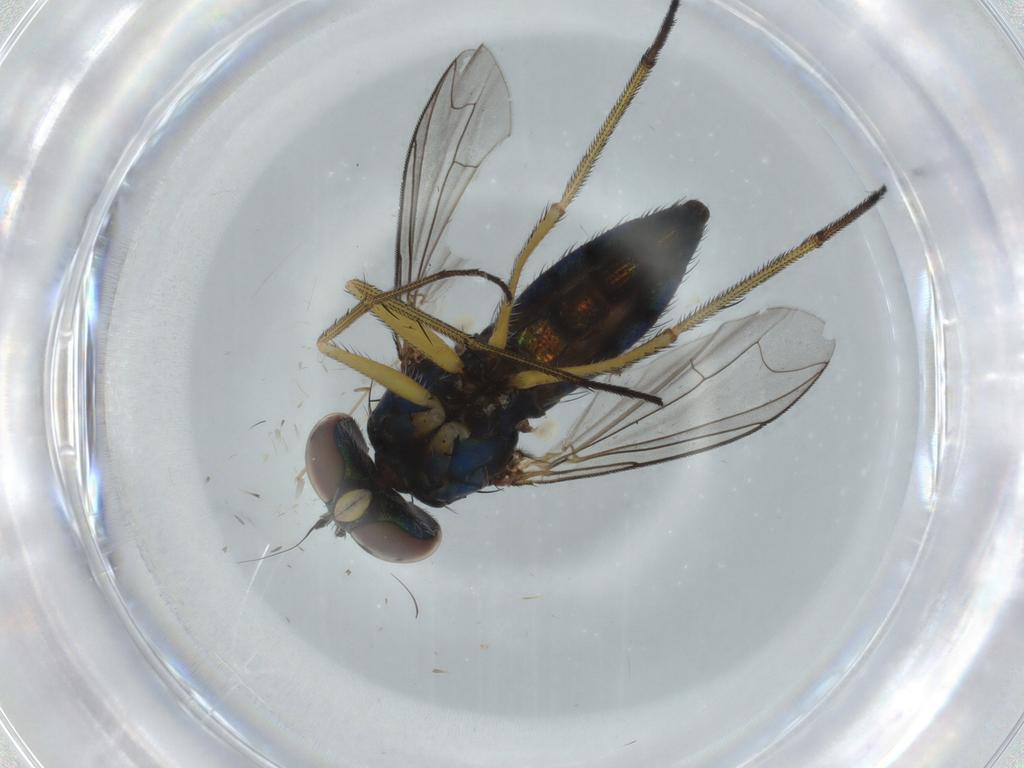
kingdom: Animalia
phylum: Arthropoda
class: Insecta
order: Diptera
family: Dolichopodidae
